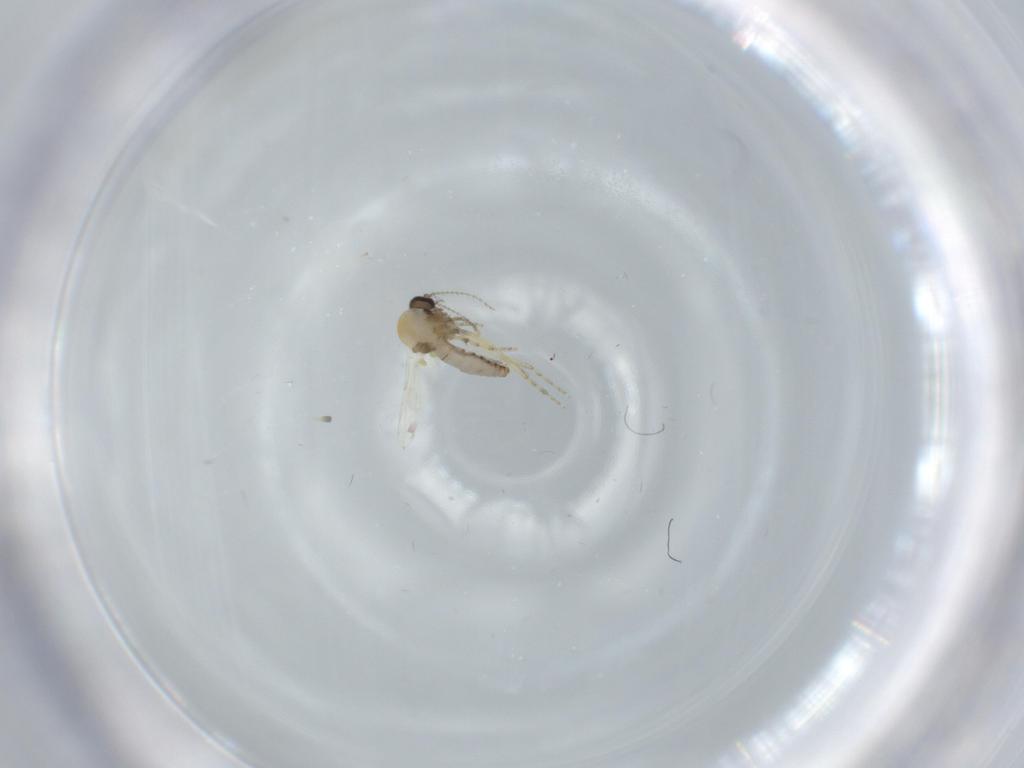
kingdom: Animalia
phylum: Arthropoda
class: Insecta
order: Diptera
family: Ceratopogonidae
